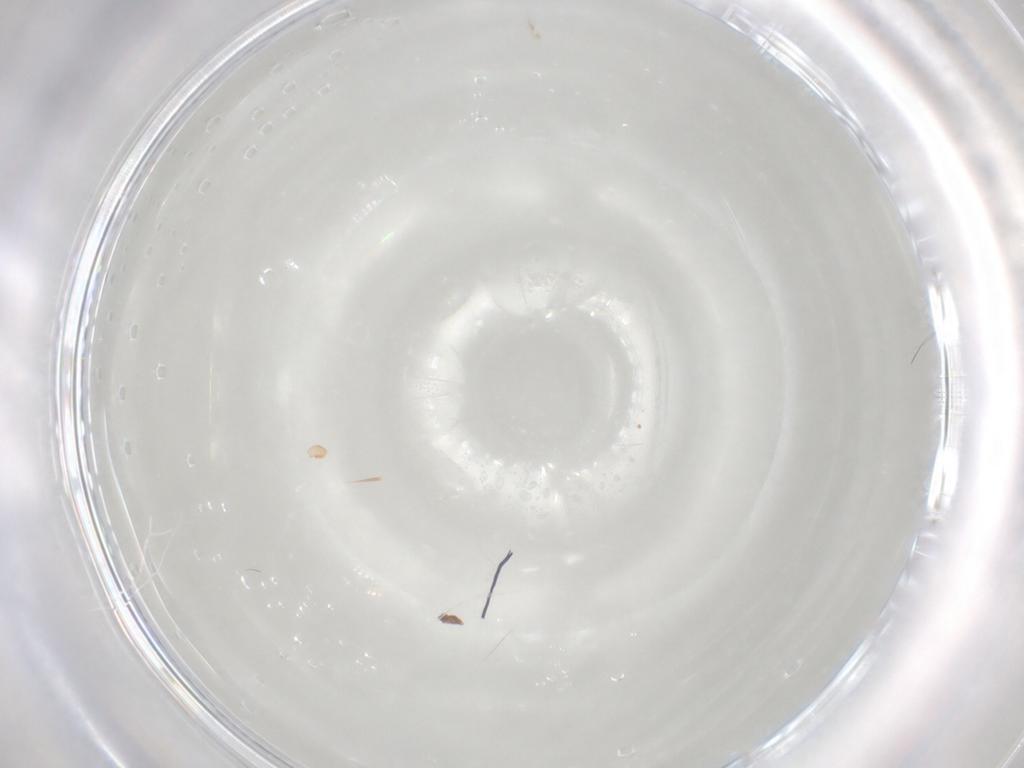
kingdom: Animalia
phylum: Arthropoda
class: Arachnida
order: Trombidiformes
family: Scutacaridae
